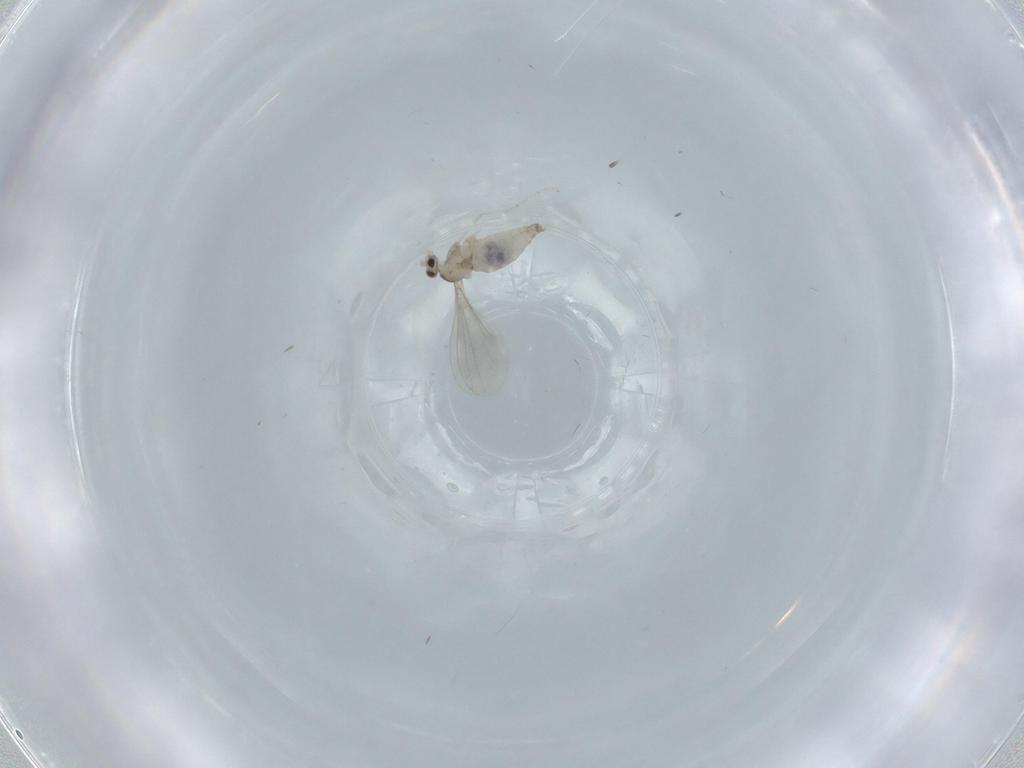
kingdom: Animalia
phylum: Arthropoda
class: Insecta
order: Diptera
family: Cecidomyiidae
